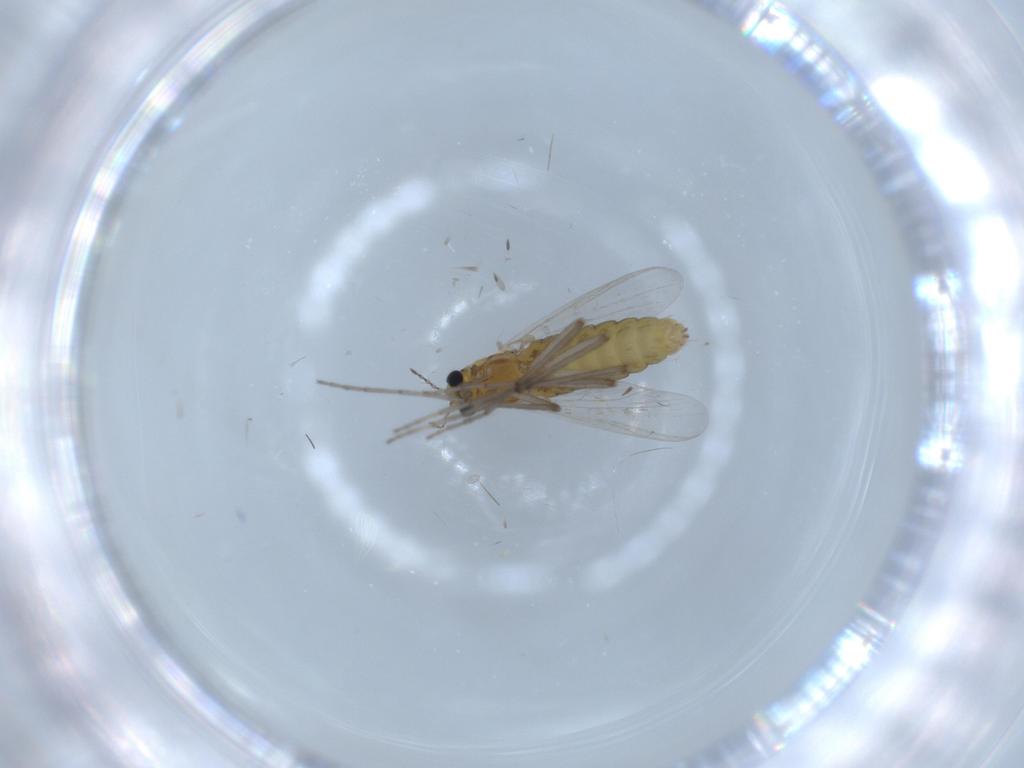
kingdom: Animalia
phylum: Arthropoda
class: Insecta
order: Diptera
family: Chironomidae
